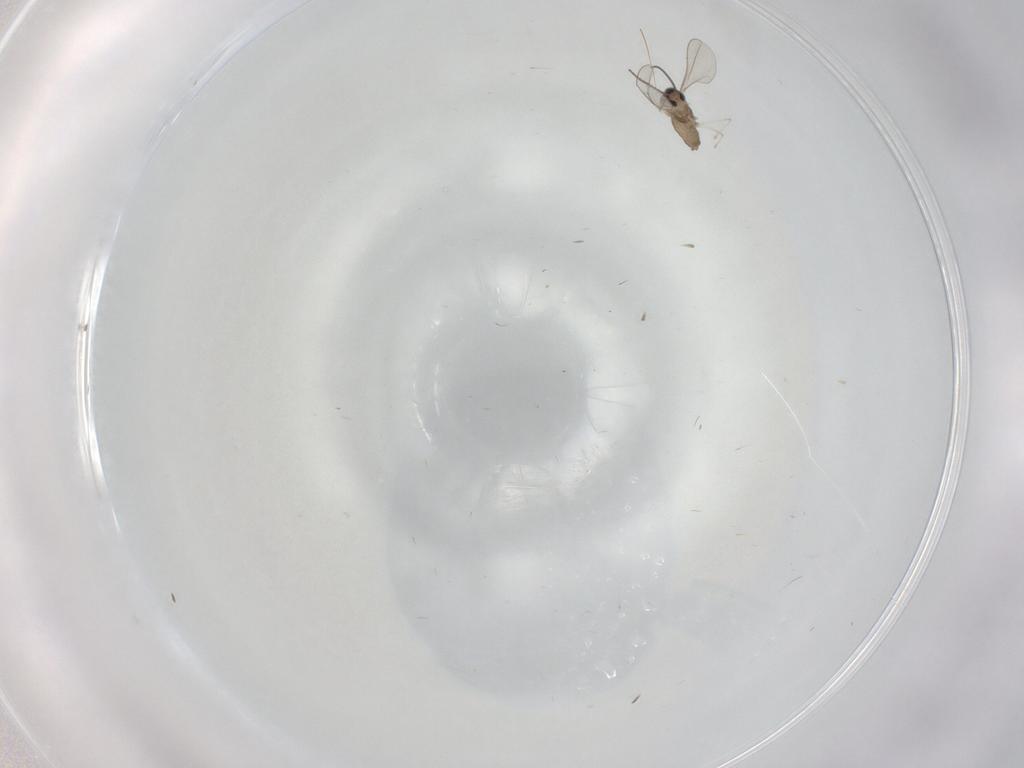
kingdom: Animalia
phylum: Arthropoda
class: Insecta
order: Diptera
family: Cecidomyiidae
